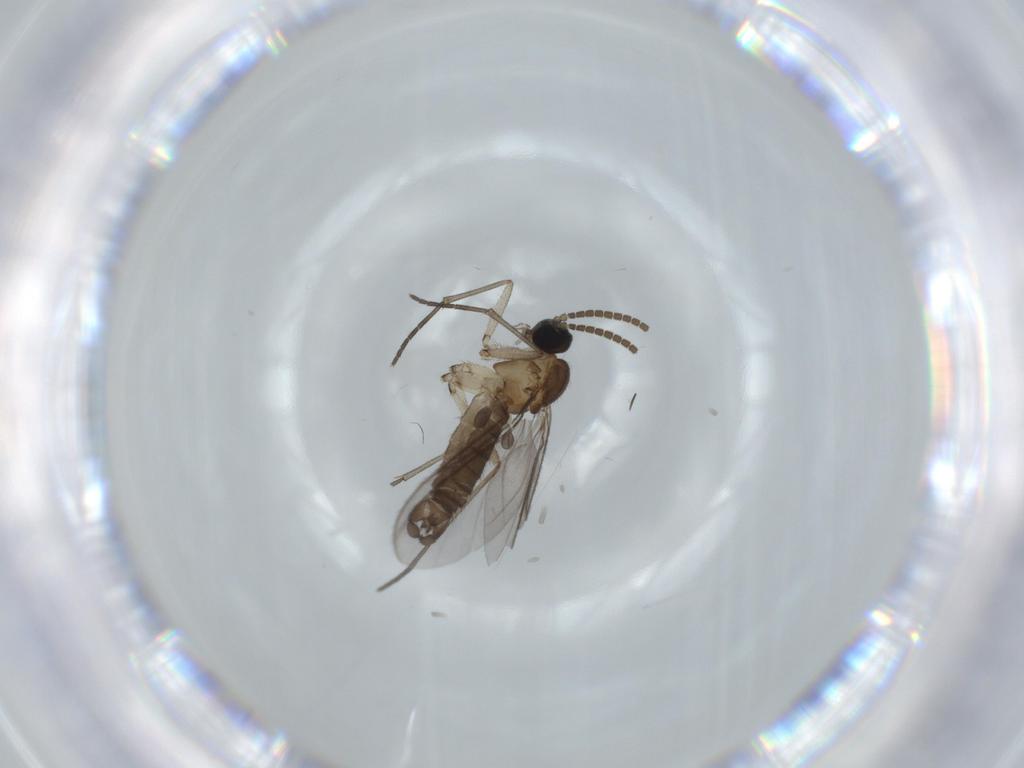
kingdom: Animalia
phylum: Arthropoda
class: Insecta
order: Diptera
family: Sciaridae
